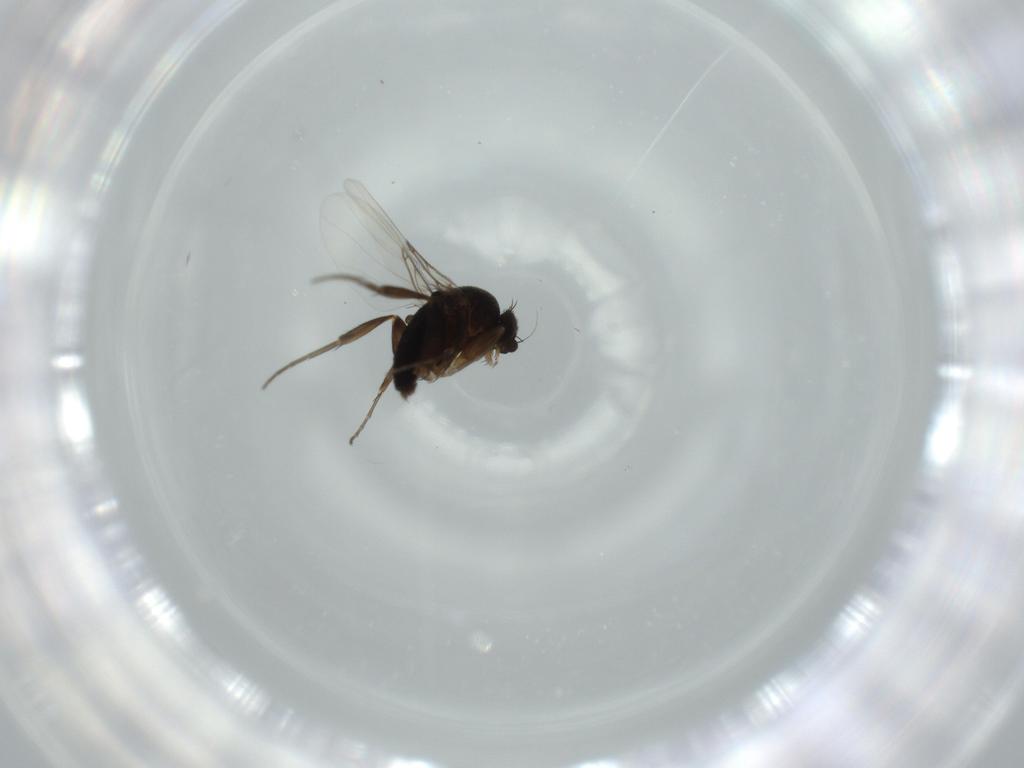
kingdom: Animalia
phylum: Arthropoda
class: Insecta
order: Diptera
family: Phoridae
